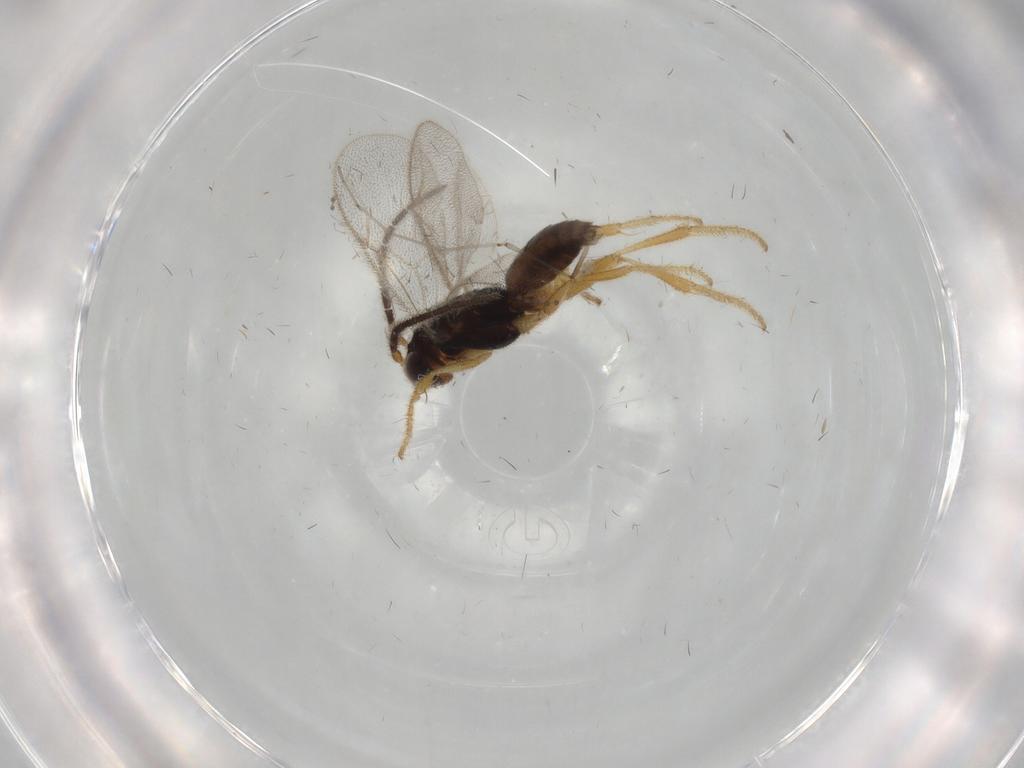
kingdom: Animalia
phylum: Arthropoda
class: Insecta
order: Hymenoptera
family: Dryinidae
